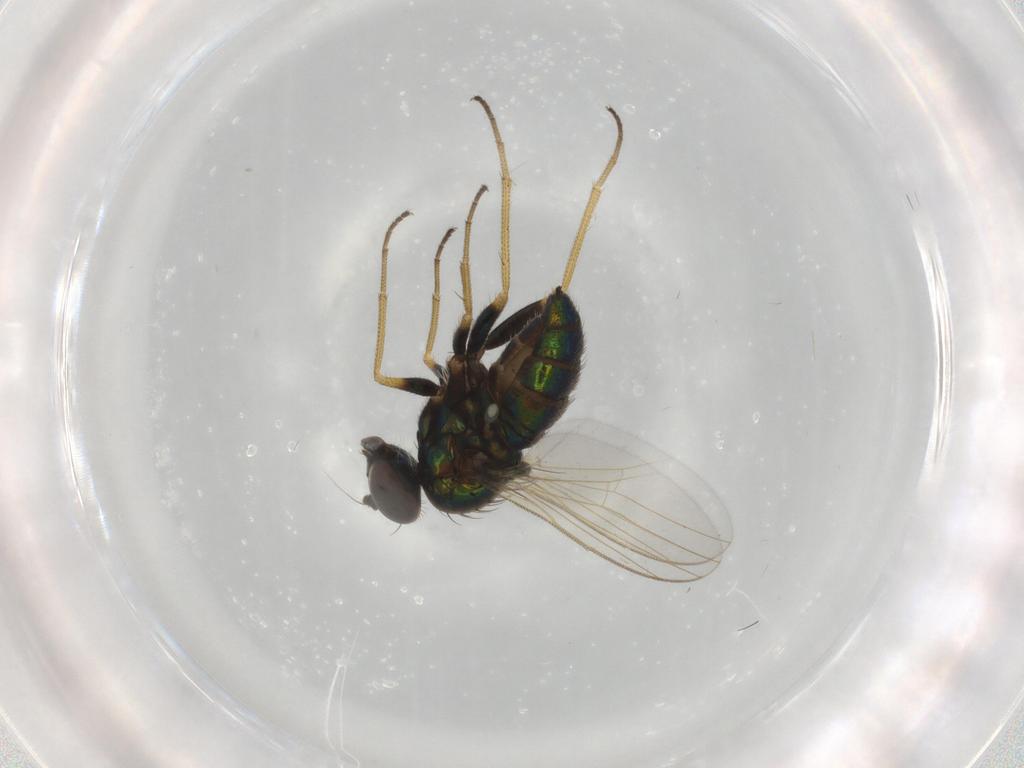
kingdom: Animalia
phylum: Arthropoda
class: Insecta
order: Diptera
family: Dolichopodidae
